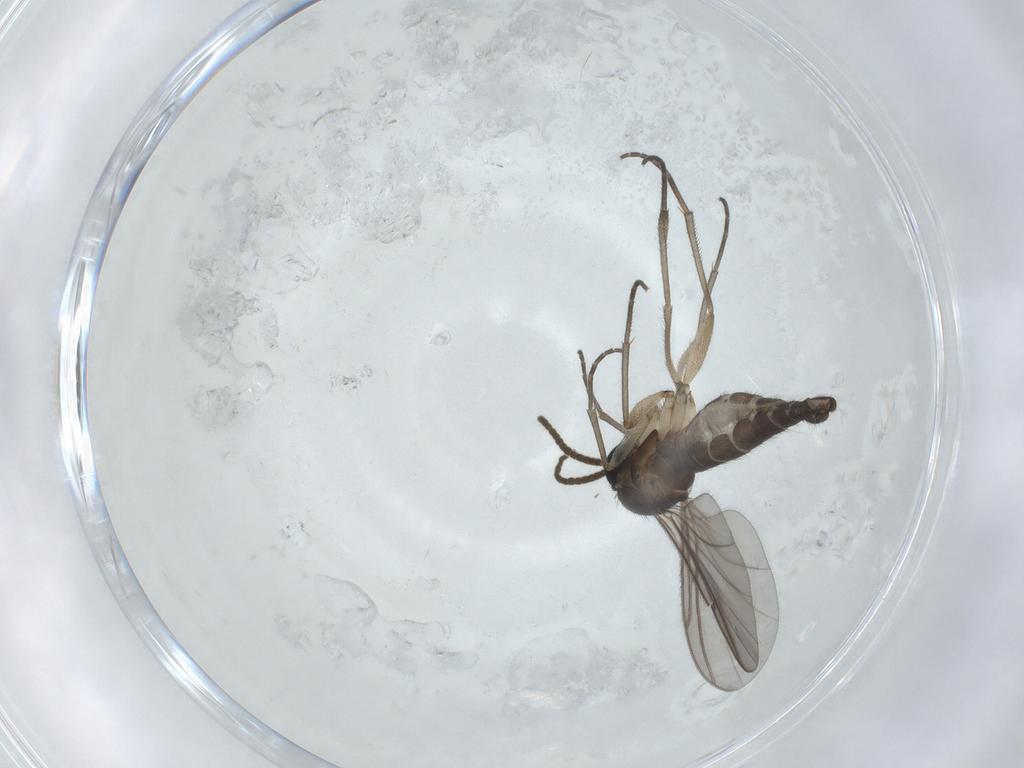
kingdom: Animalia
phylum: Arthropoda
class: Insecta
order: Diptera
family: Sciaridae
